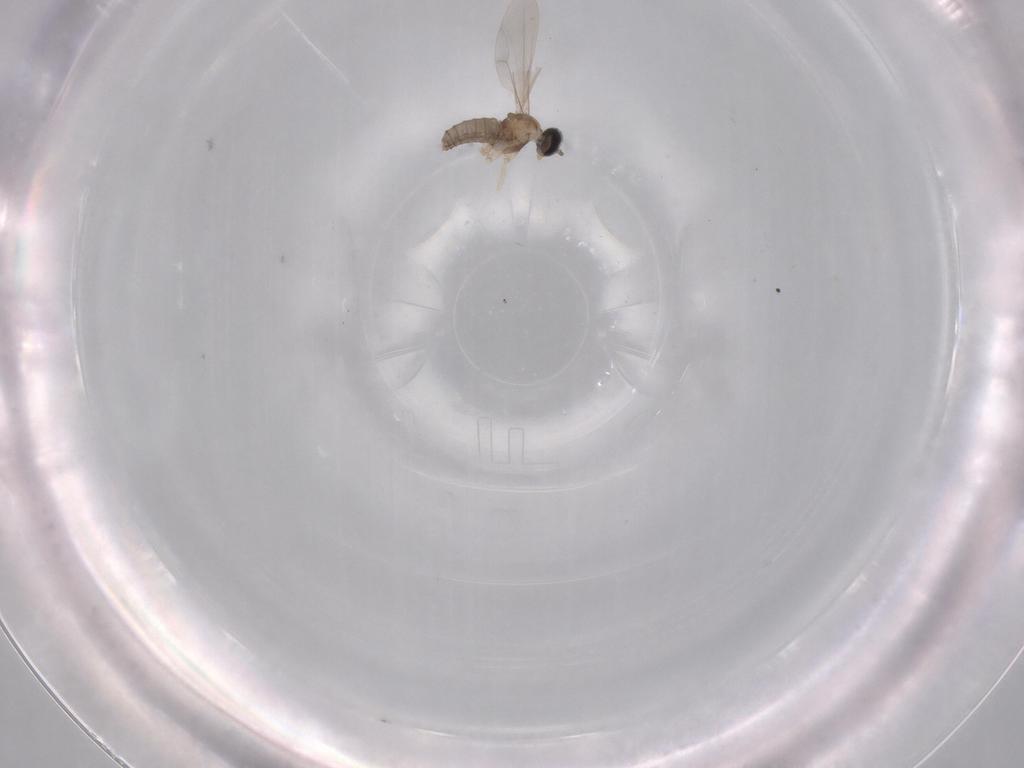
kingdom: Animalia
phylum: Arthropoda
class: Insecta
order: Diptera
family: Cecidomyiidae
